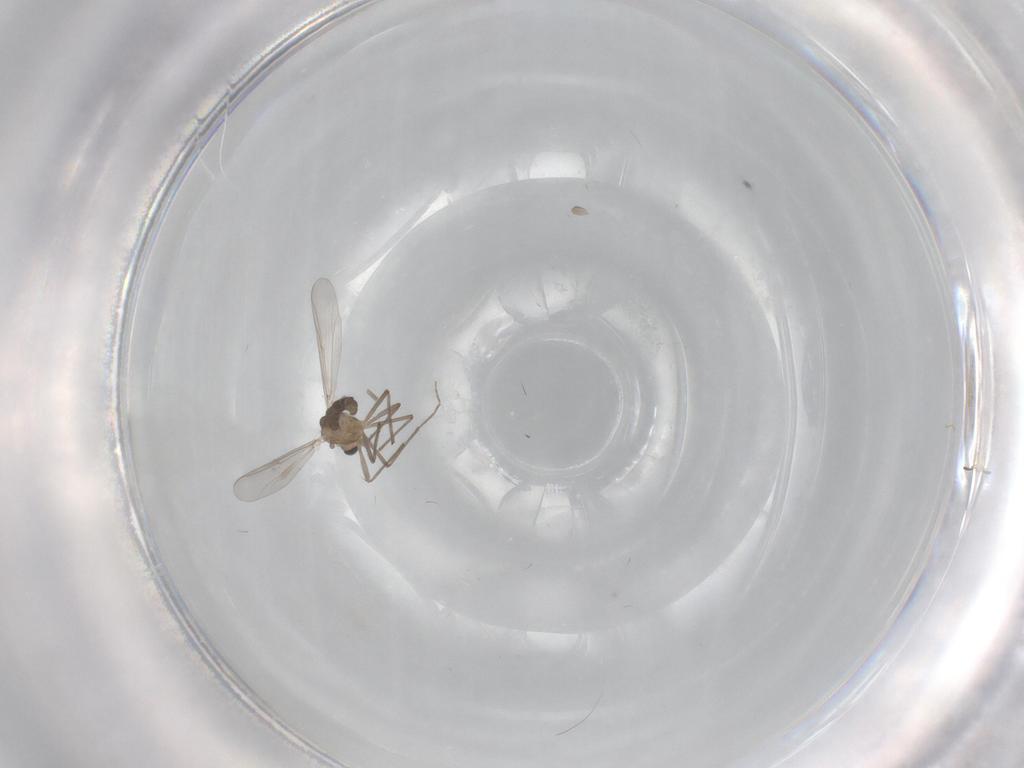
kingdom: Animalia
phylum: Arthropoda
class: Insecta
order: Diptera
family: Chironomidae
